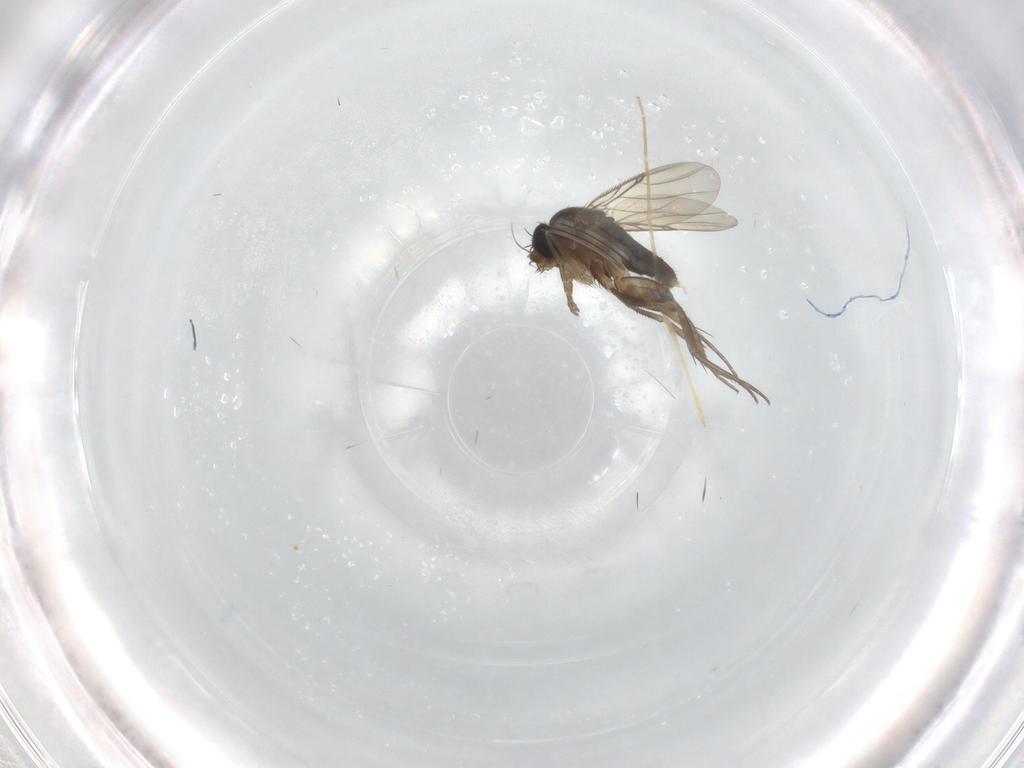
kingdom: Animalia
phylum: Arthropoda
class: Insecta
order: Diptera
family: Phoridae
